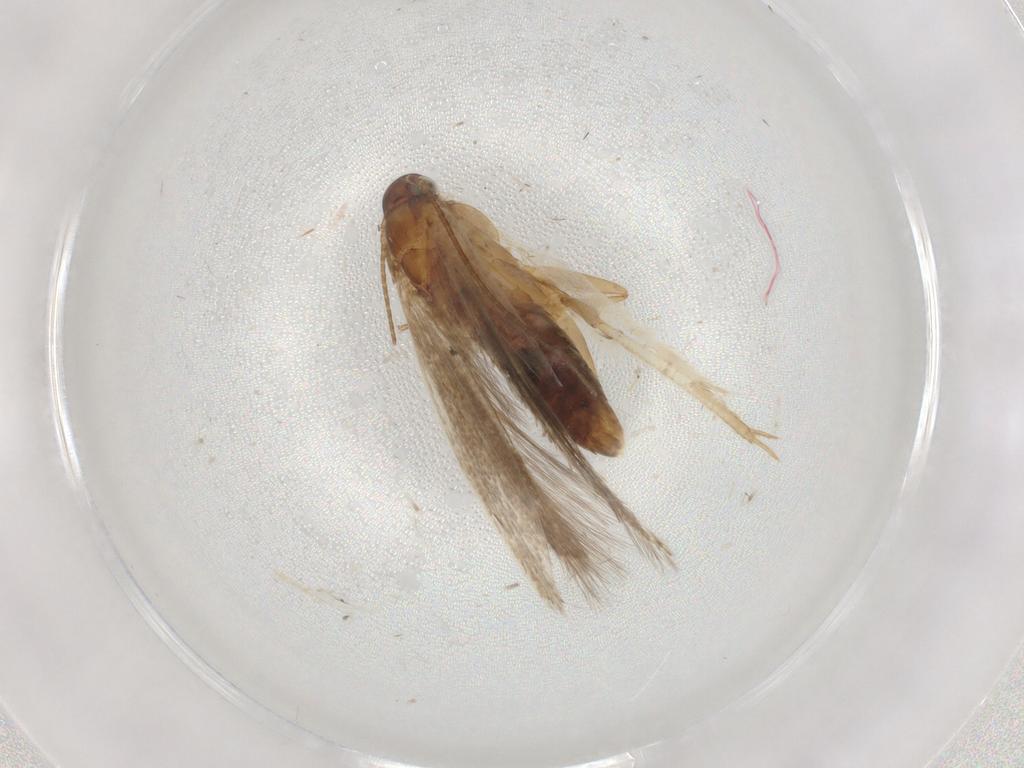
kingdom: Animalia
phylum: Arthropoda
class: Insecta
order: Lepidoptera
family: Gelechiidae
